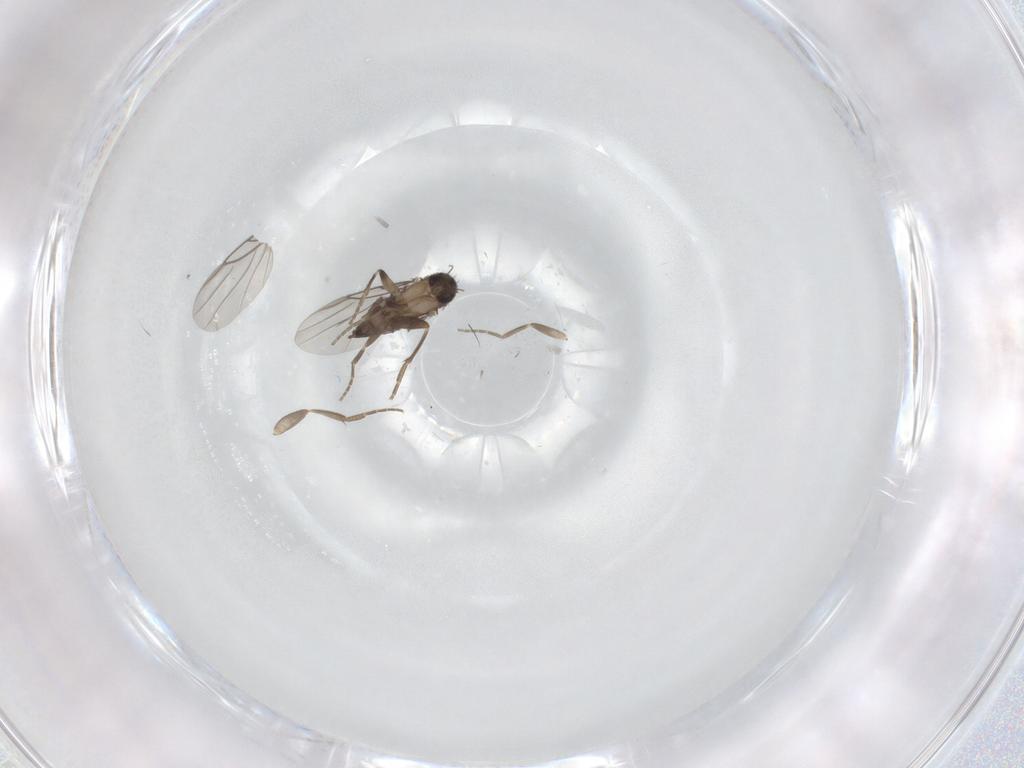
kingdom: Animalia
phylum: Arthropoda
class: Insecta
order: Diptera
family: Phoridae
